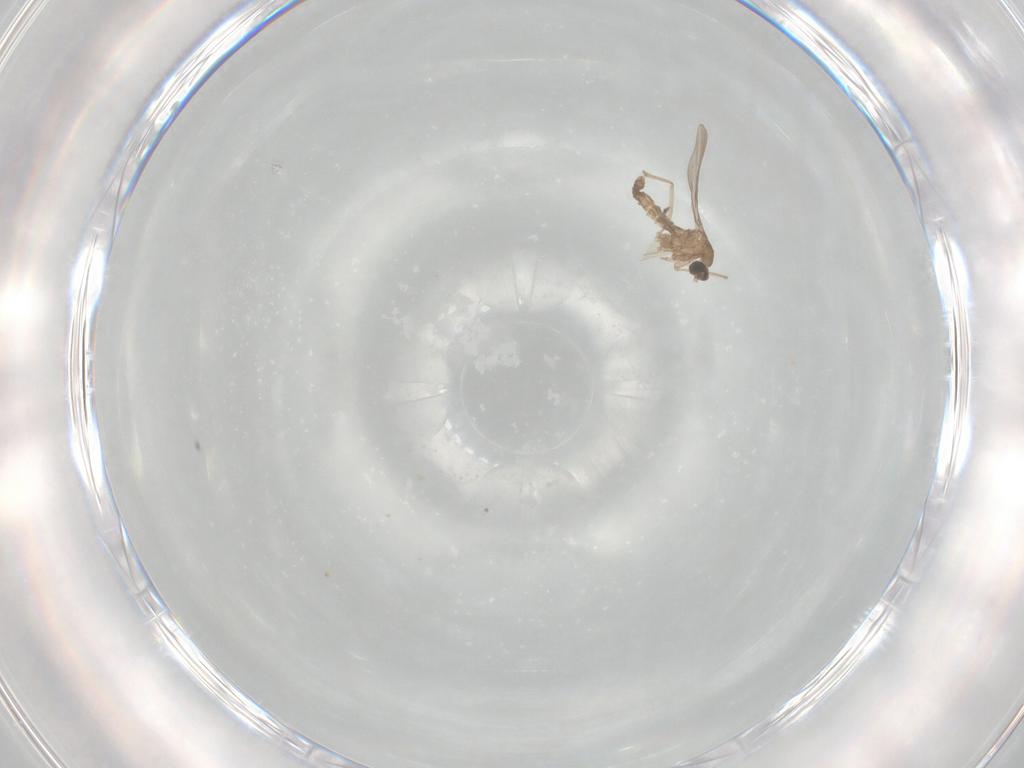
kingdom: Animalia
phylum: Arthropoda
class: Insecta
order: Diptera
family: Cecidomyiidae
